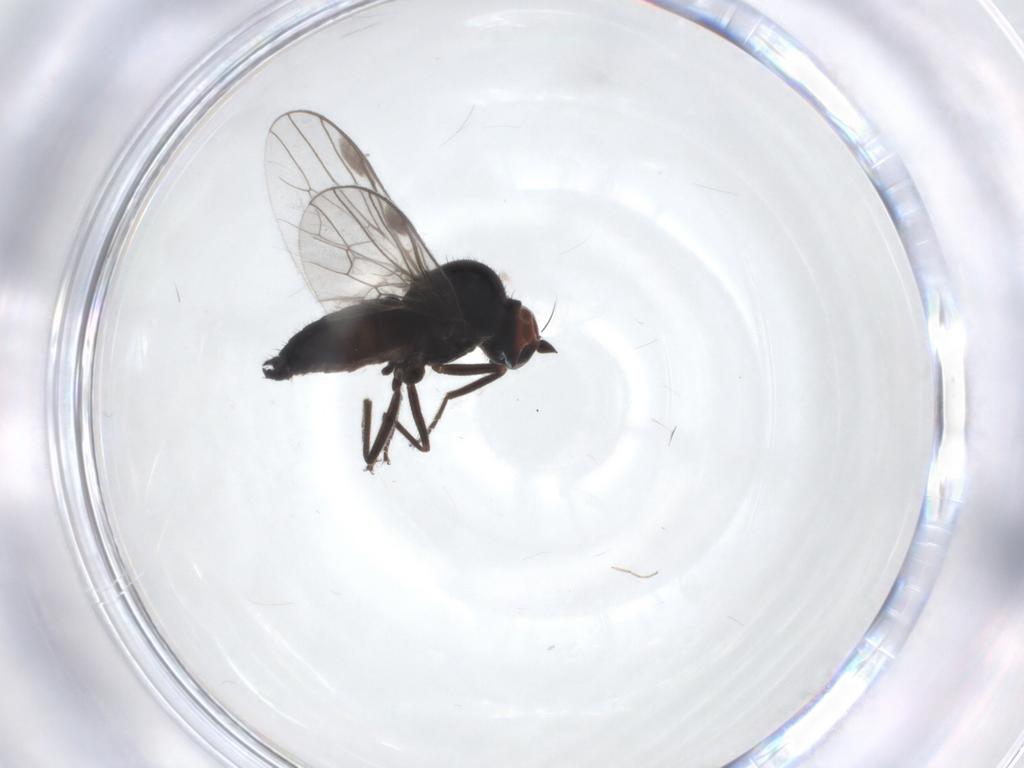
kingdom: Animalia
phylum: Arthropoda
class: Insecta
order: Diptera
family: Hybotidae
